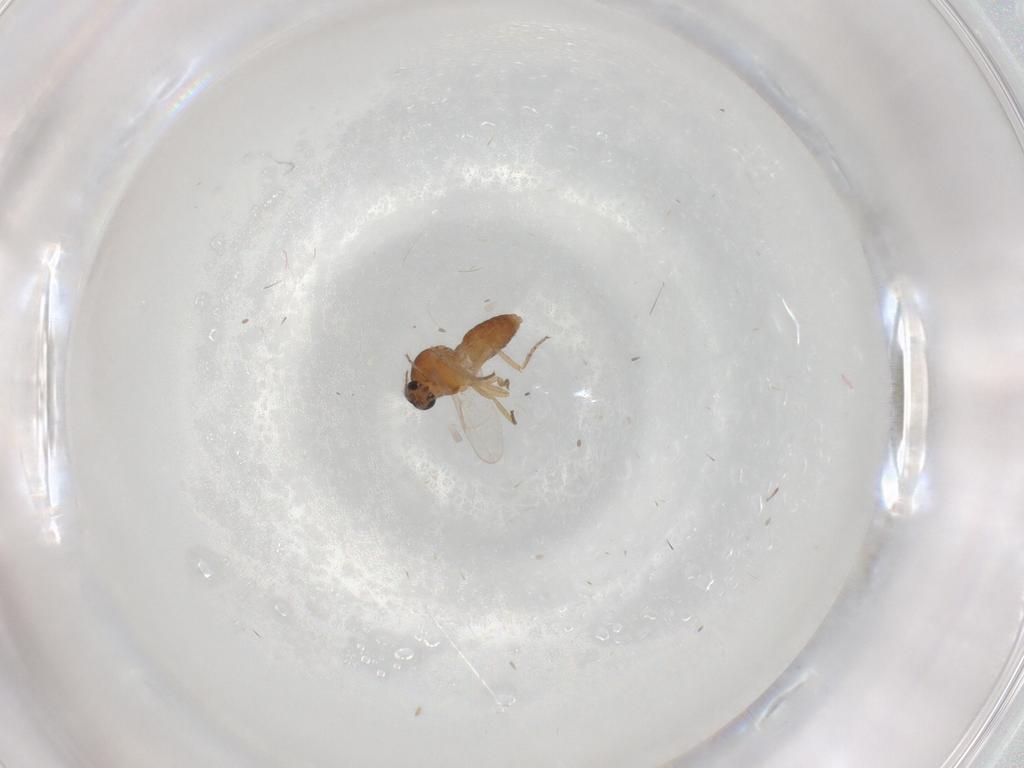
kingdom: Animalia
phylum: Arthropoda
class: Insecta
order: Diptera
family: Ceratopogonidae
